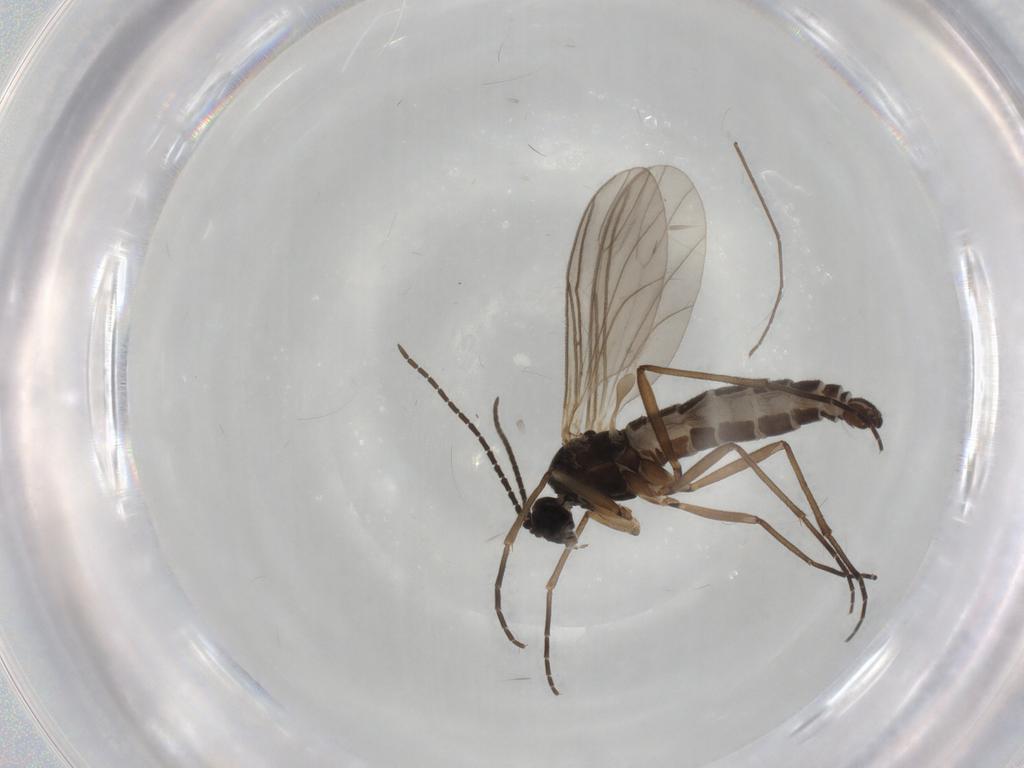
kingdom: Animalia
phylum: Arthropoda
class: Insecta
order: Diptera
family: Sciaridae
